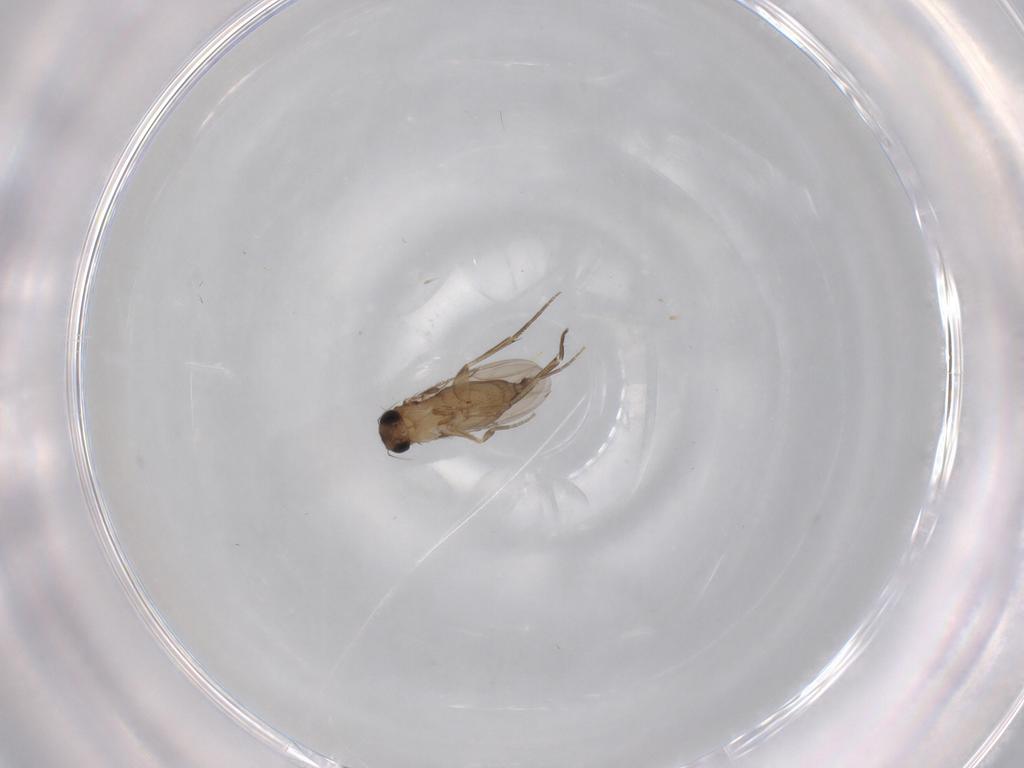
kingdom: Animalia
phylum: Arthropoda
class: Insecta
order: Diptera
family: Phoridae
